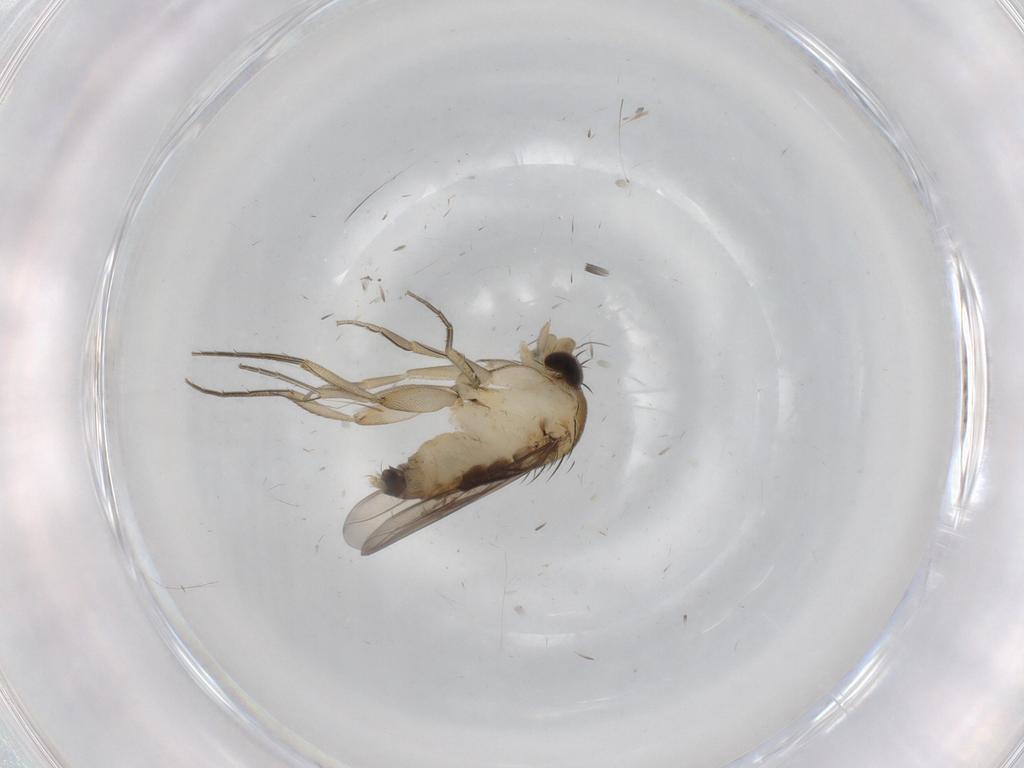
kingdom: Animalia
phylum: Arthropoda
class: Insecta
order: Diptera
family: Phoridae
